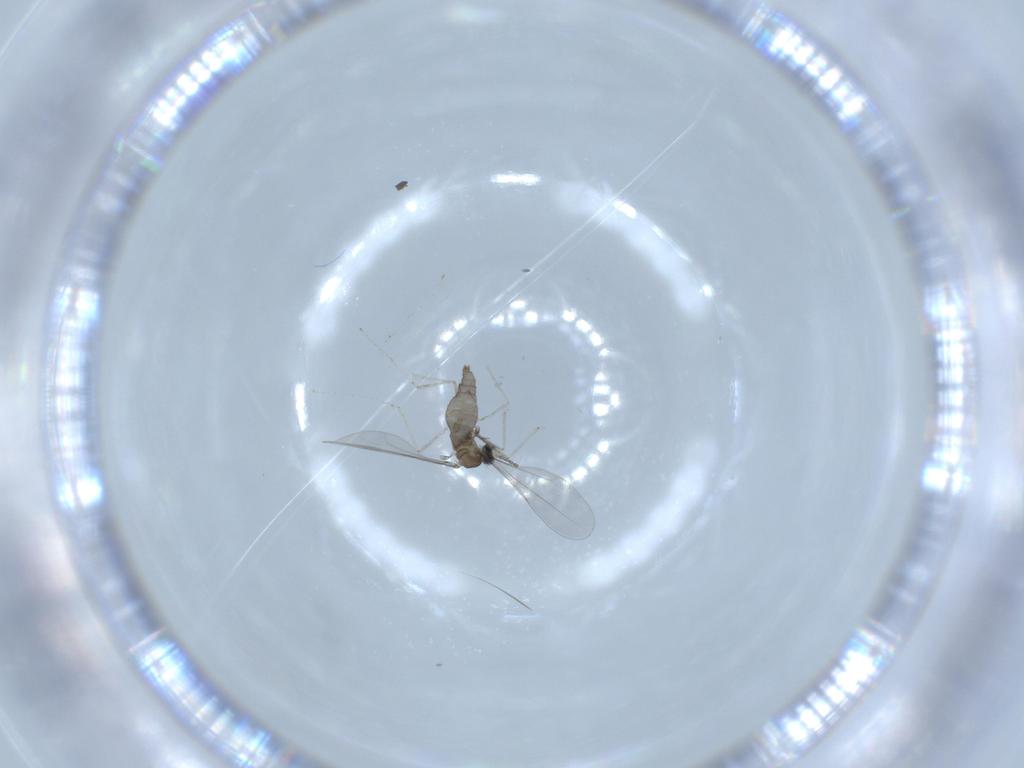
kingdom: Animalia
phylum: Arthropoda
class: Insecta
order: Diptera
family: Cecidomyiidae
